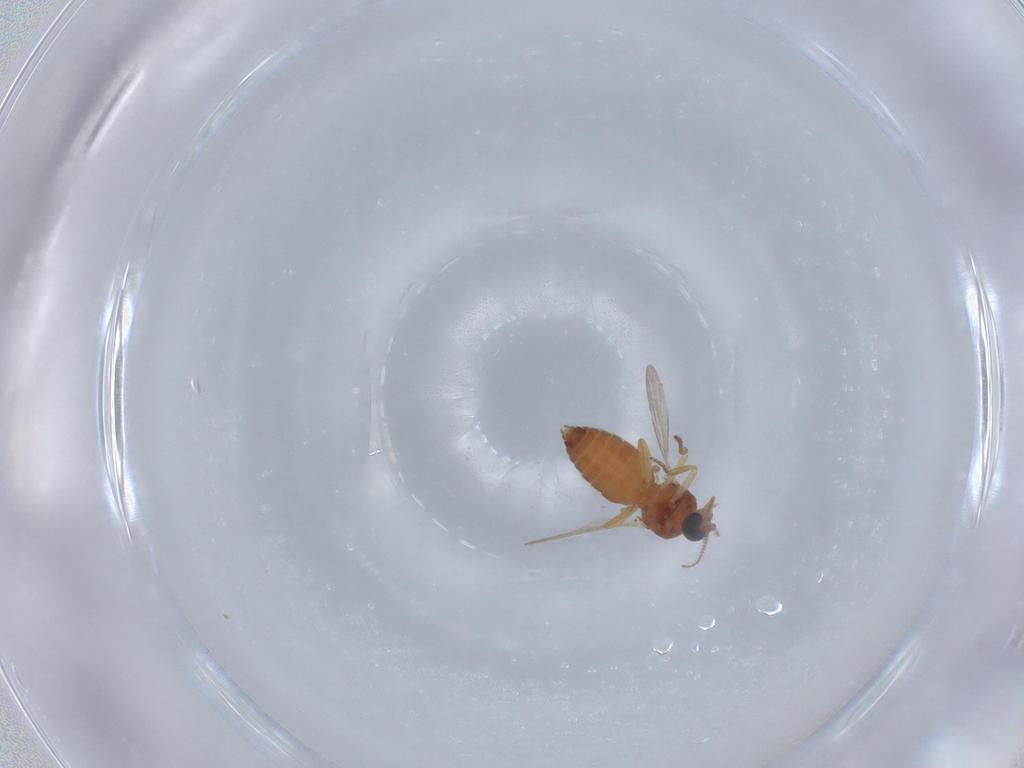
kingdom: Animalia
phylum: Arthropoda
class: Insecta
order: Diptera
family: Ceratopogonidae
